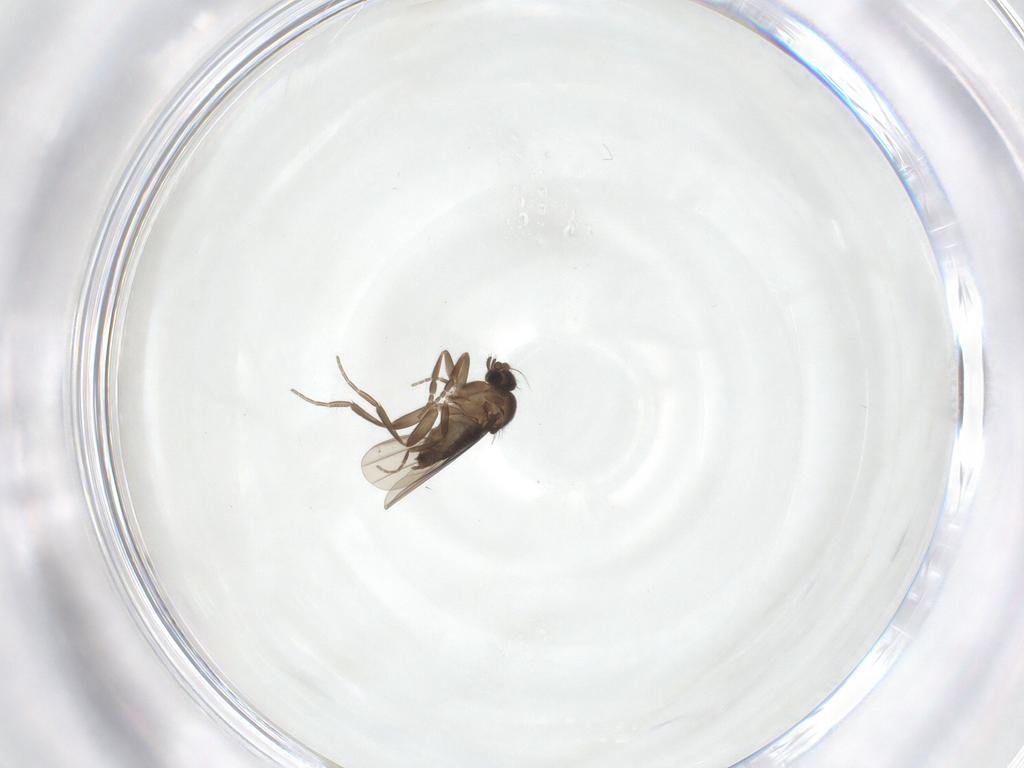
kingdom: Animalia
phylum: Arthropoda
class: Insecta
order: Diptera
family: Phoridae
